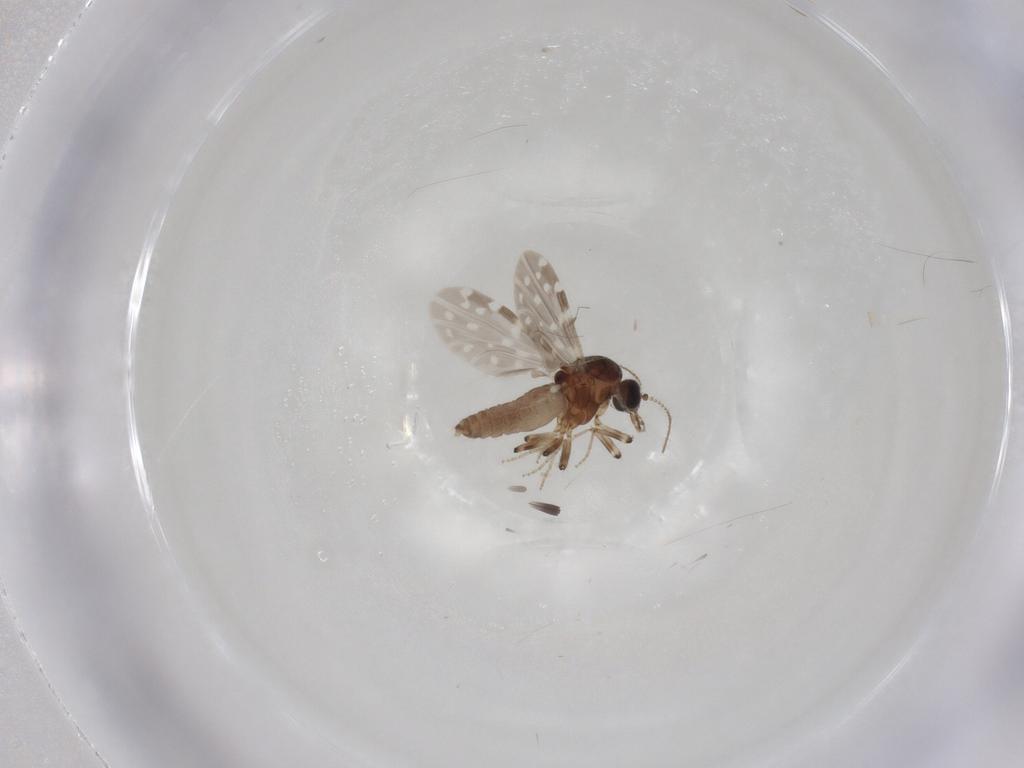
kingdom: Animalia
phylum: Arthropoda
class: Insecta
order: Diptera
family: Ceratopogonidae
